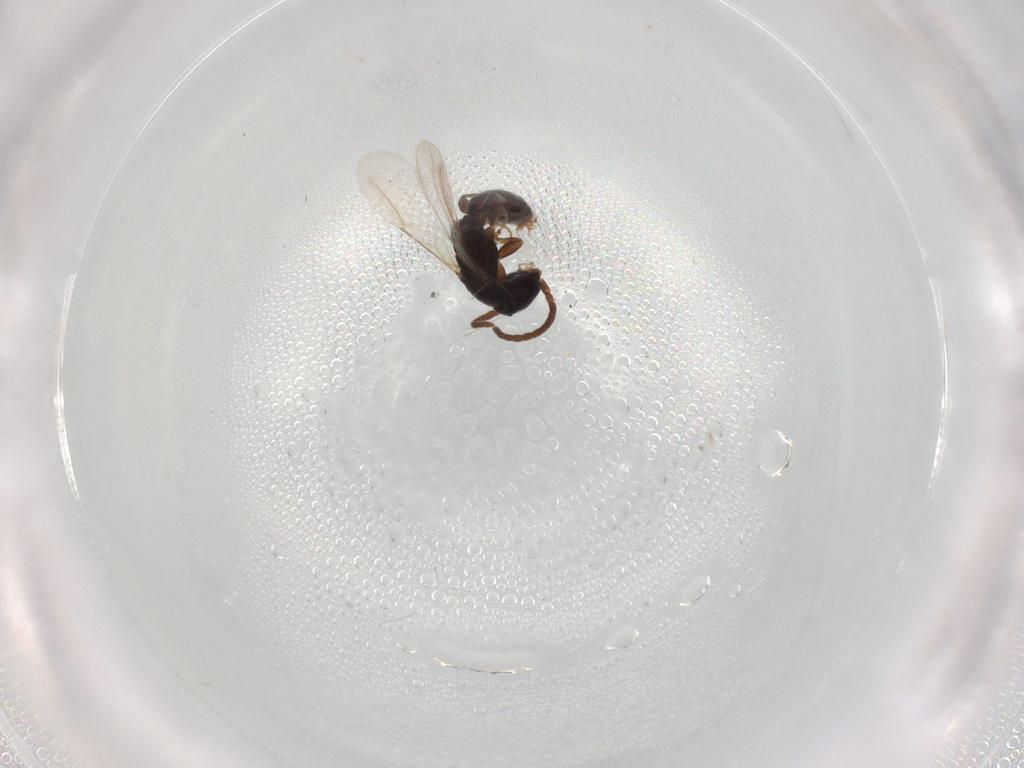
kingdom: Animalia
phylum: Arthropoda
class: Insecta
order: Hymenoptera
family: Bethylidae
